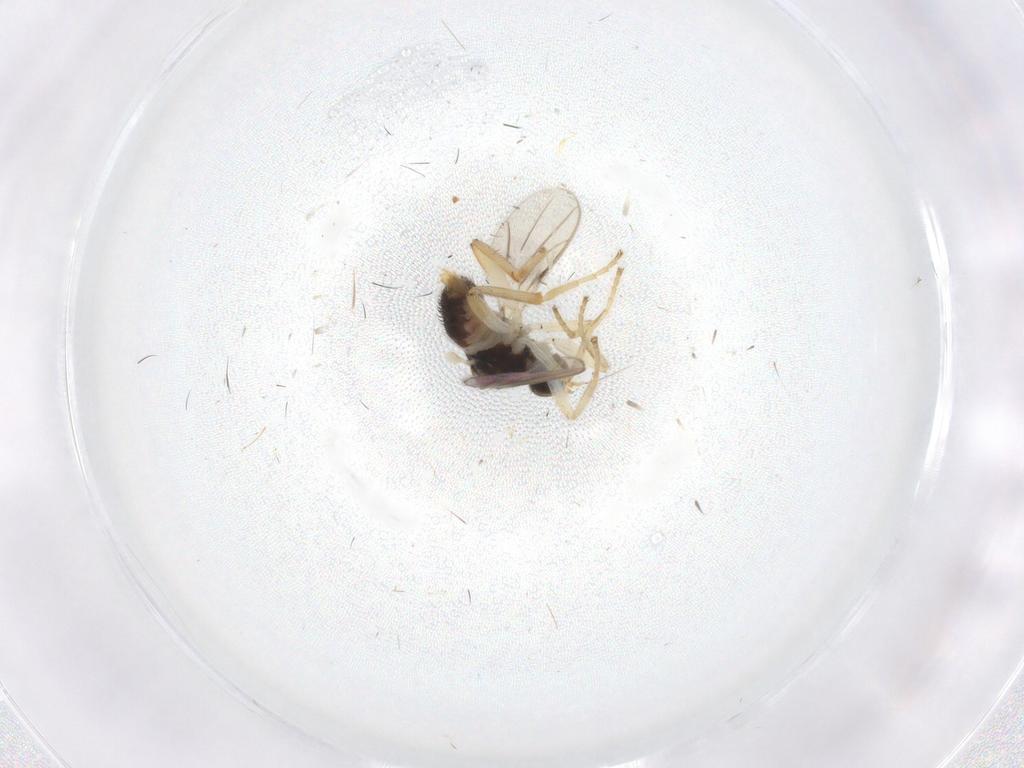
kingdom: Animalia
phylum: Arthropoda
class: Insecta
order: Diptera
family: Hybotidae
